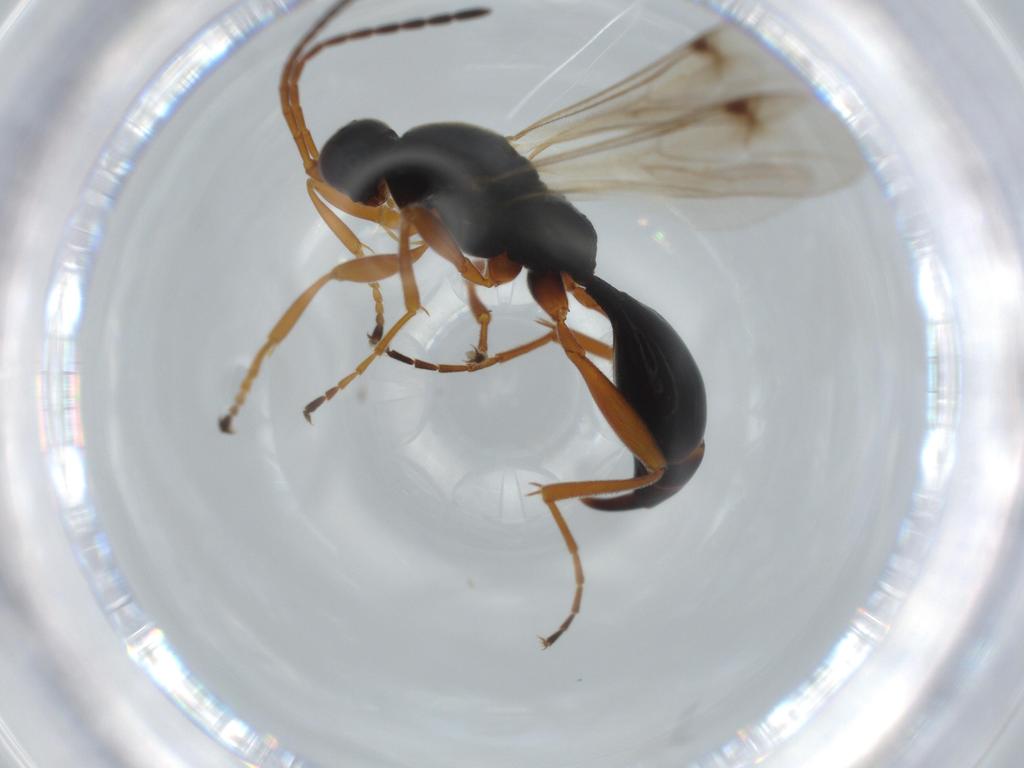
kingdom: Animalia
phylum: Arthropoda
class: Insecta
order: Hymenoptera
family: Proctotrupidae
